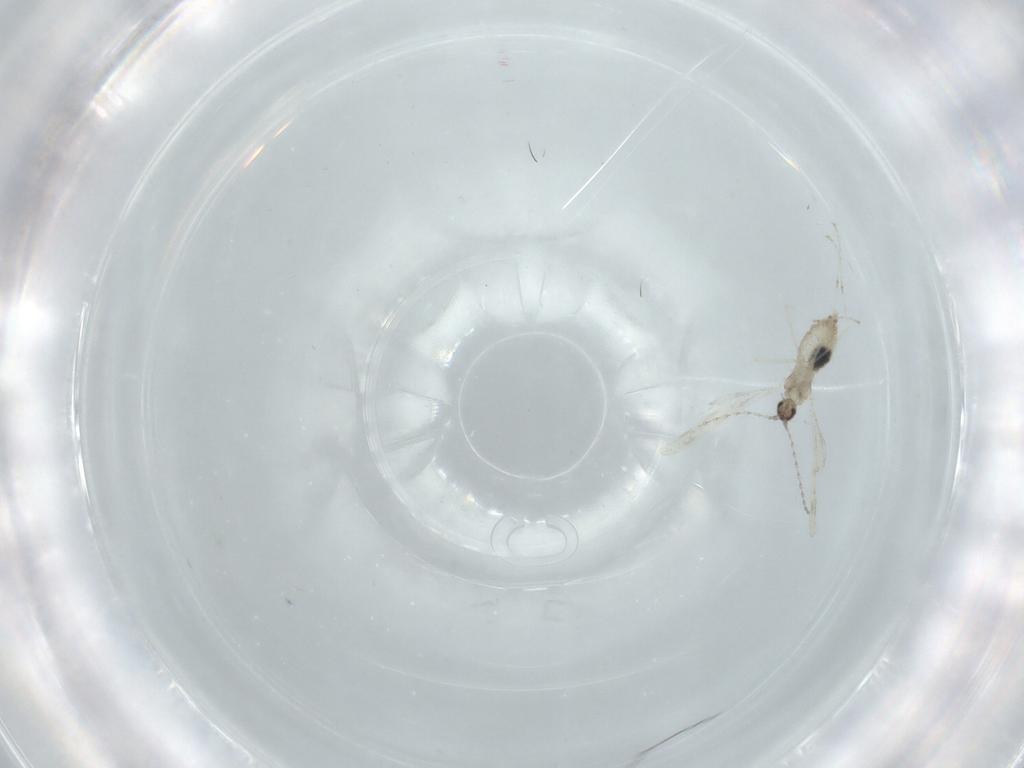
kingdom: Animalia
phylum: Arthropoda
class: Insecta
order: Diptera
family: Cecidomyiidae
